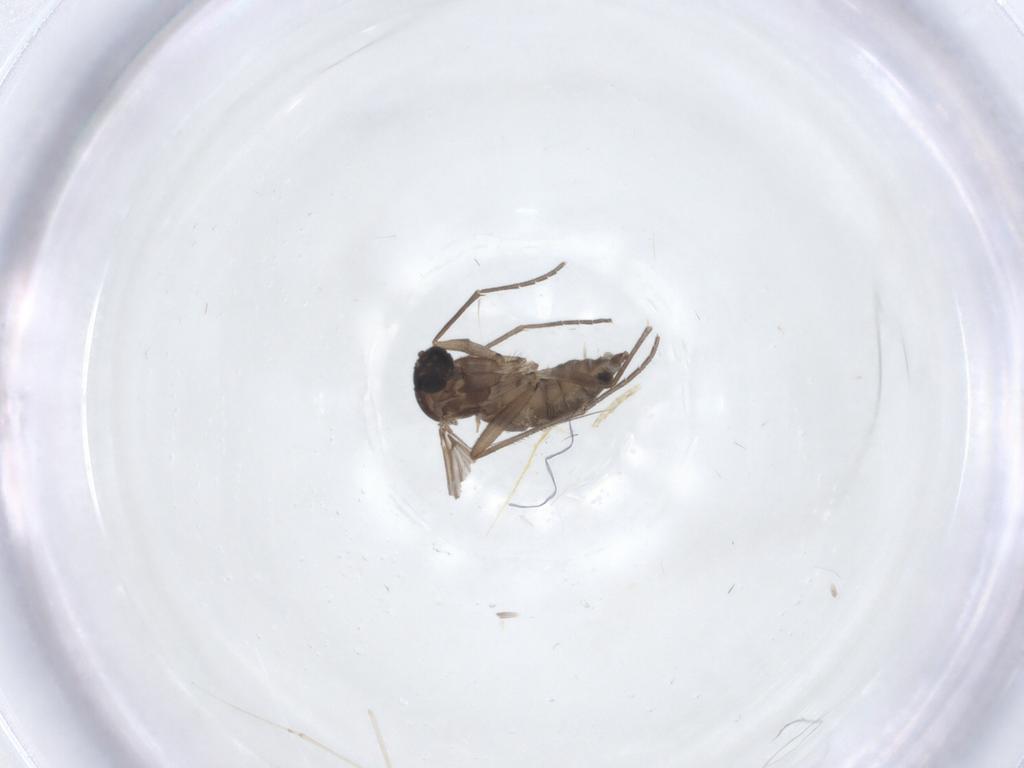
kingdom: Animalia
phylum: Arthropoda
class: Insecta
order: Diptera
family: Sciaridae
